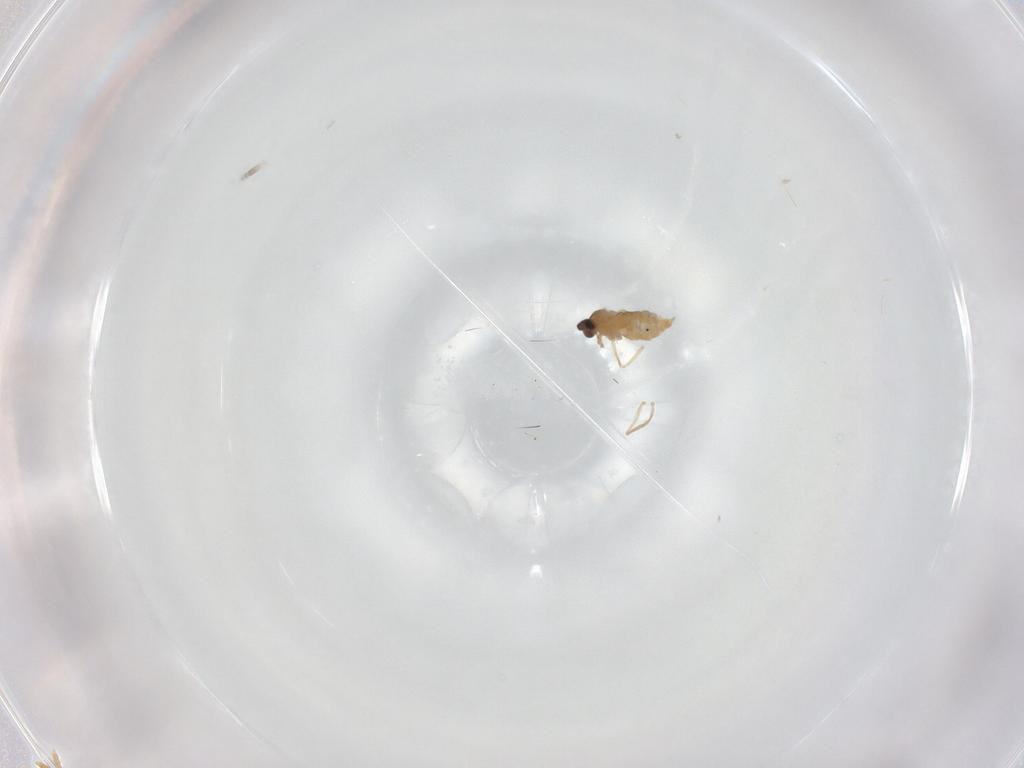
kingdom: Animalia
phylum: Arthropoda
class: Insecta
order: Diptera
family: Cecidomyiidae
